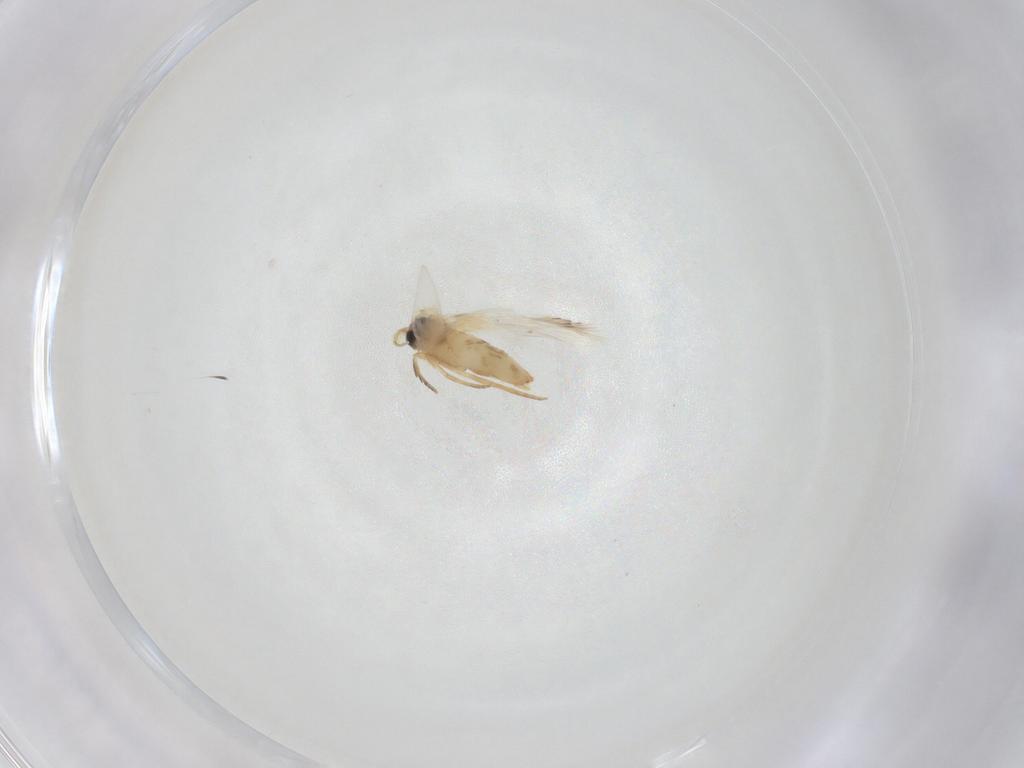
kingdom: Animalia
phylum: Arthropoda
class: Insecta
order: Lepidoptera
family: Crambidae
